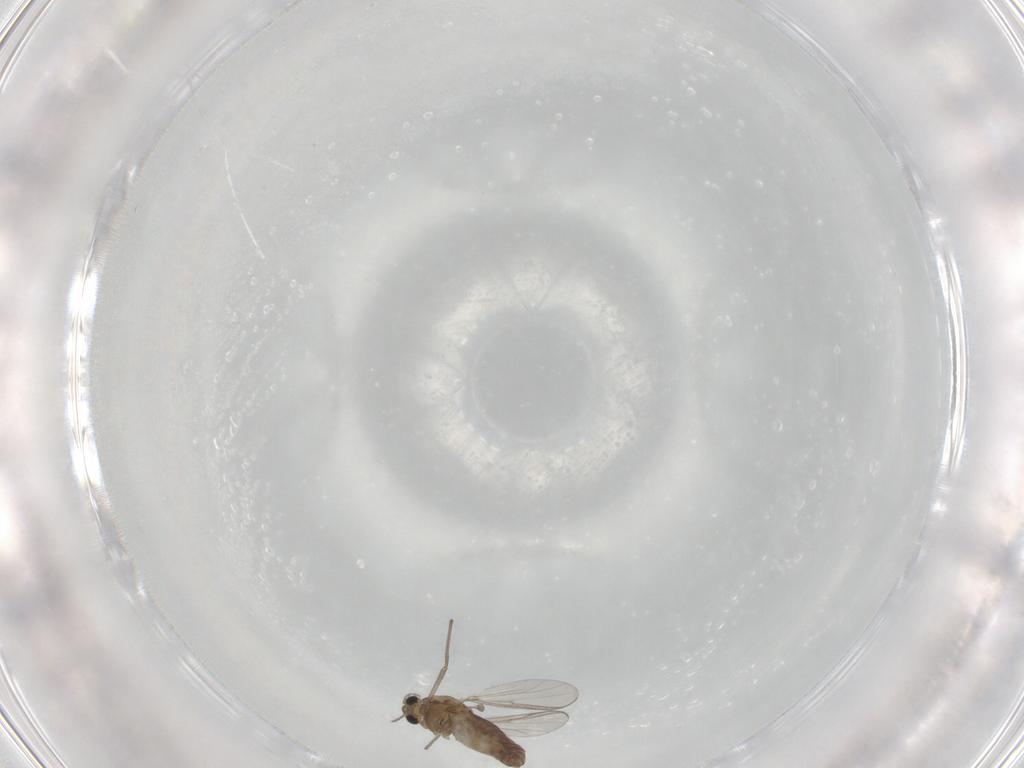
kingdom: Animalia
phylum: Arthropoda
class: Insecta
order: Diptera
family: Chironomidae
